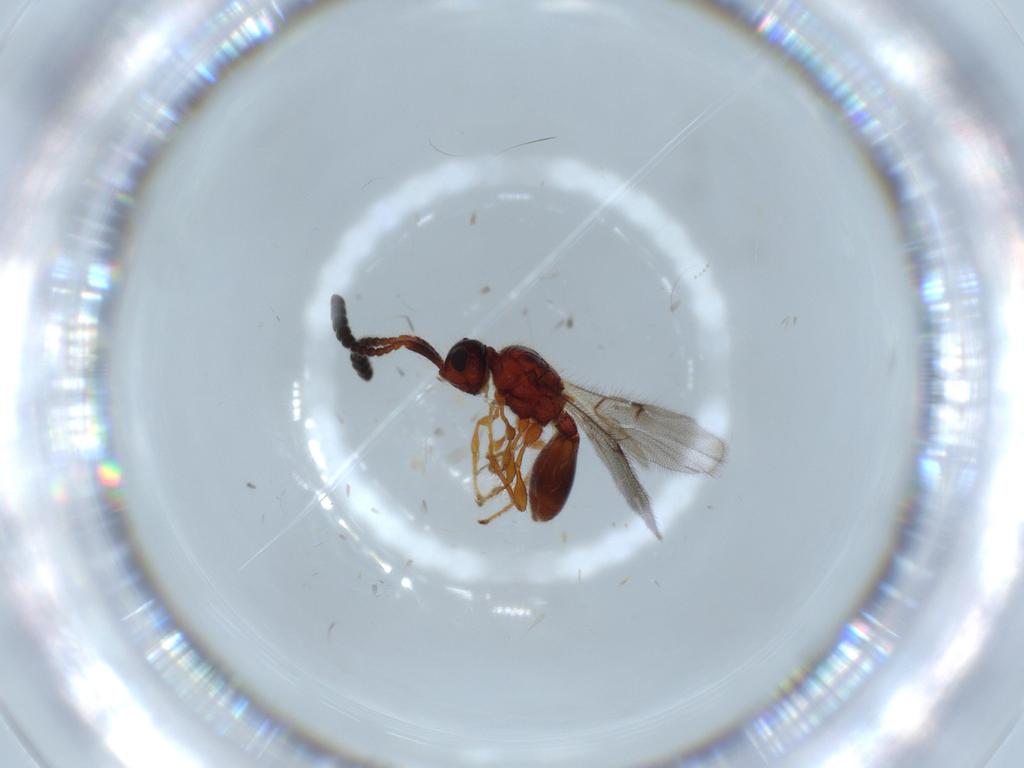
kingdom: Animalia
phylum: Arthropoda
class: Insecta
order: Hymenoptera
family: Diapriidae
